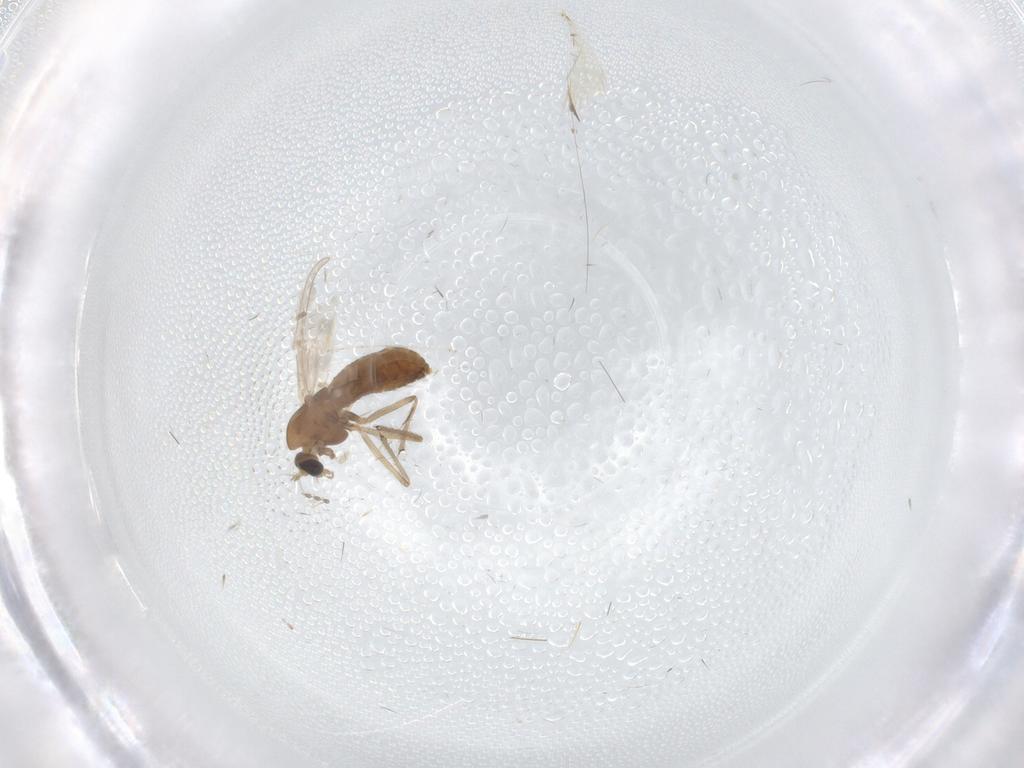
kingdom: Animalia
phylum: Arthropoda
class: Insecta
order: Diptera
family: Chironomidae
